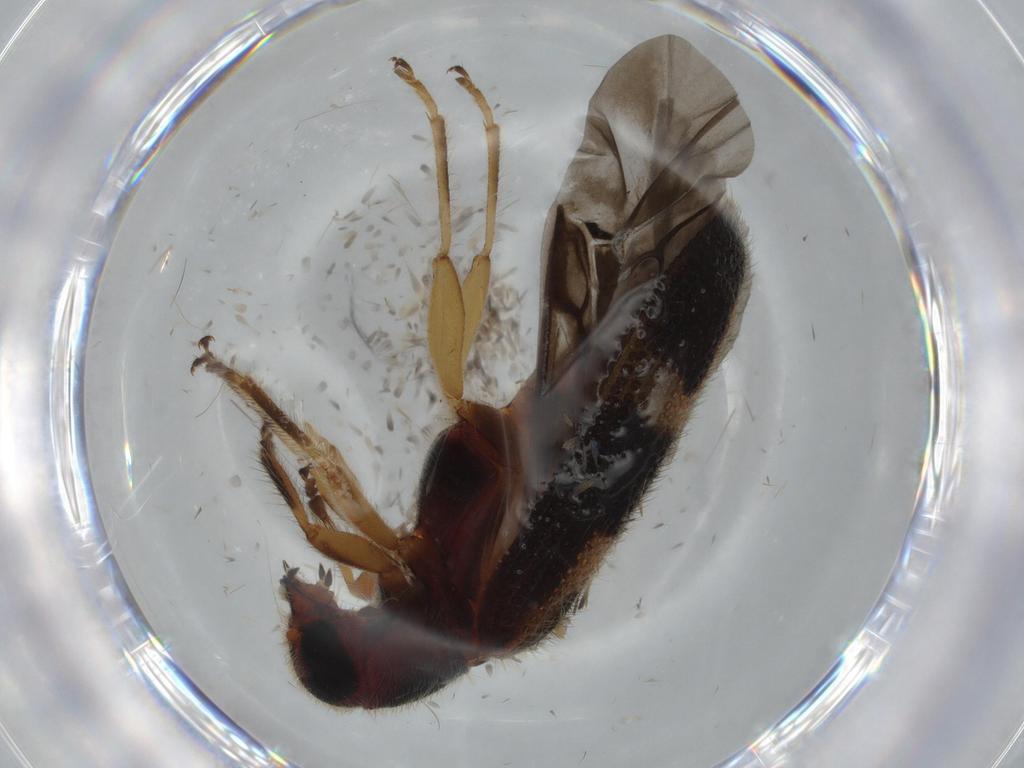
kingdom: Animalia
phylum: Arthropoda
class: Insecta
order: Coleoptera
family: Cleridae
